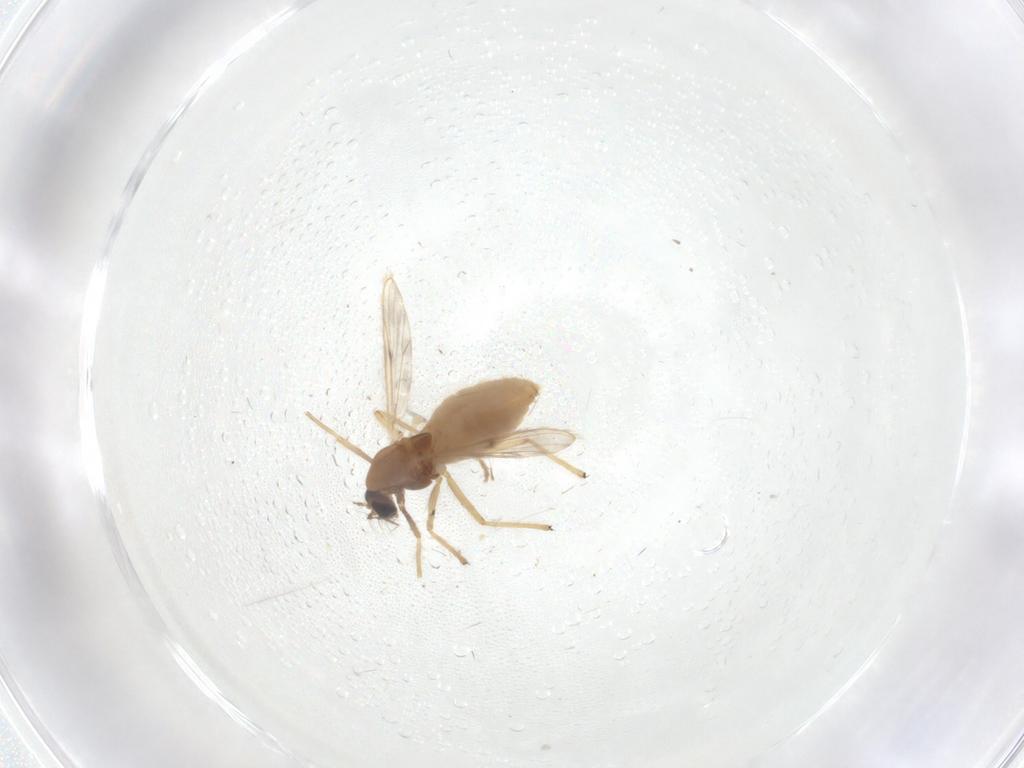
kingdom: Animalia
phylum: Arthropoda
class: Insecta
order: Diptera
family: Chironomidae
